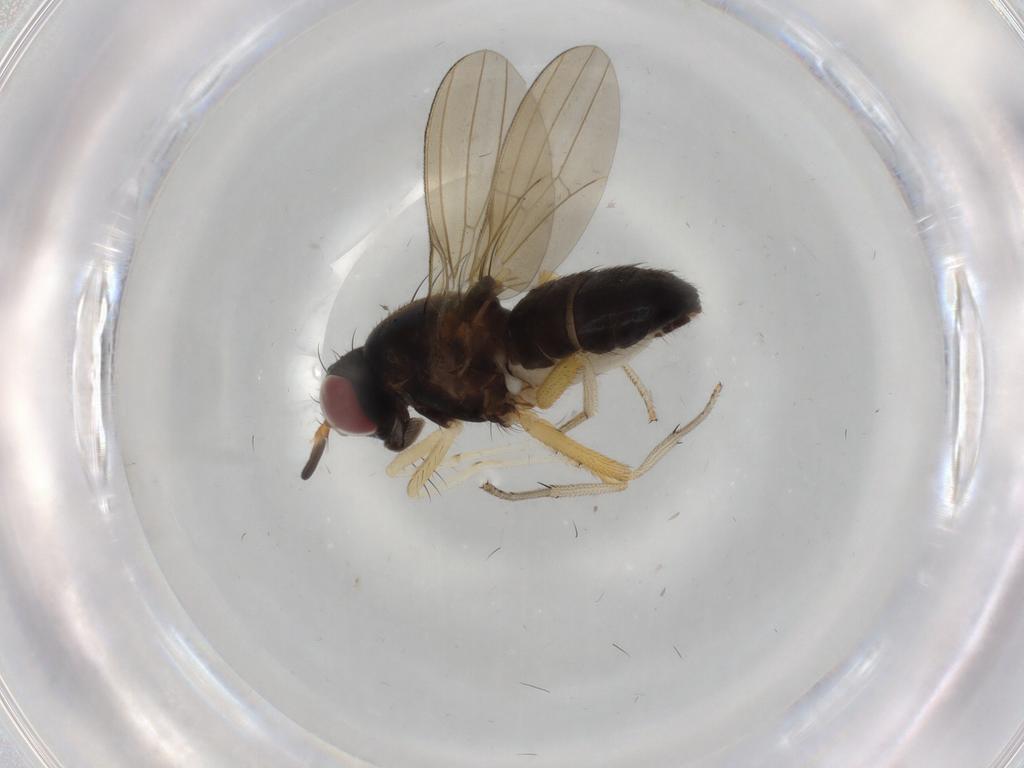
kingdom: Animalia
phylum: Arthropoda
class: Insecta
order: Diptera
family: Lauxaniidae
